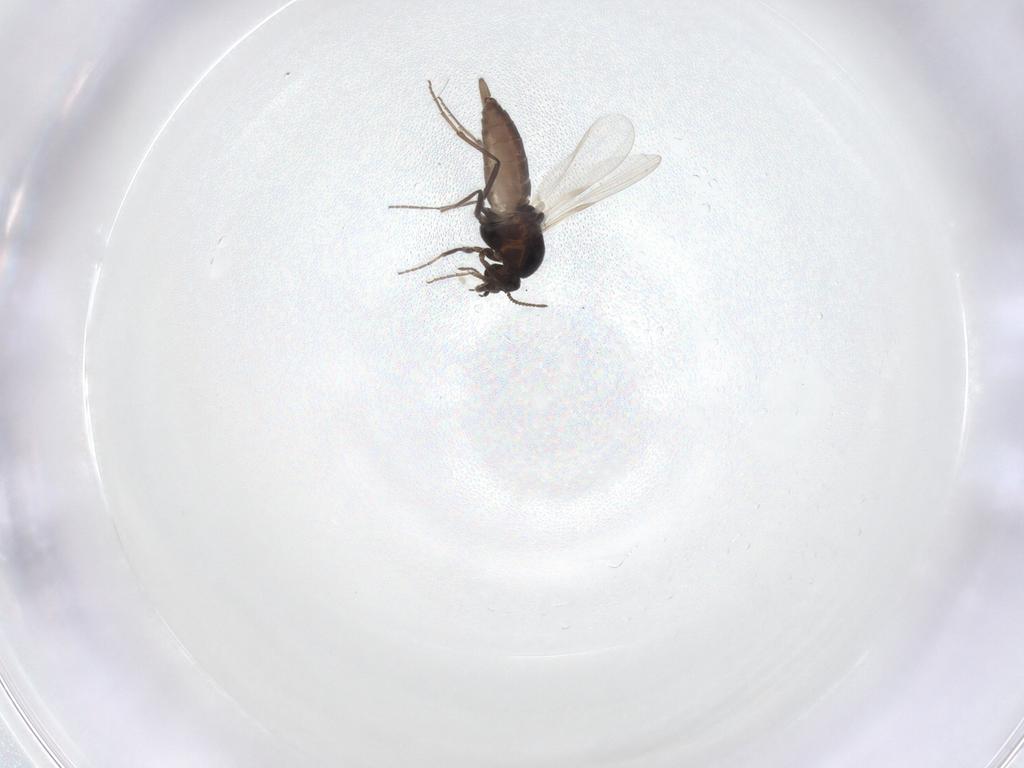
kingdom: Animalia
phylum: Arthropoda
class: Insecta
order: Diptera
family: Ceratopogonidae
